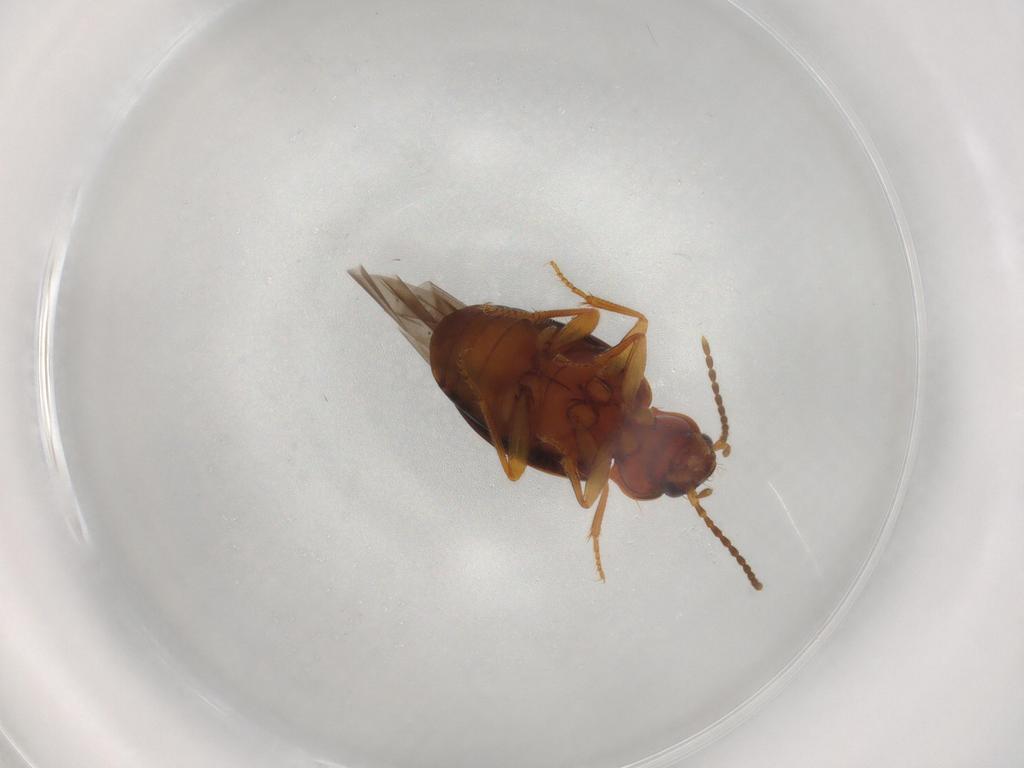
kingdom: Animalia
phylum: Arthropoda
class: Insecta
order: Coleoptera
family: Carabidae
